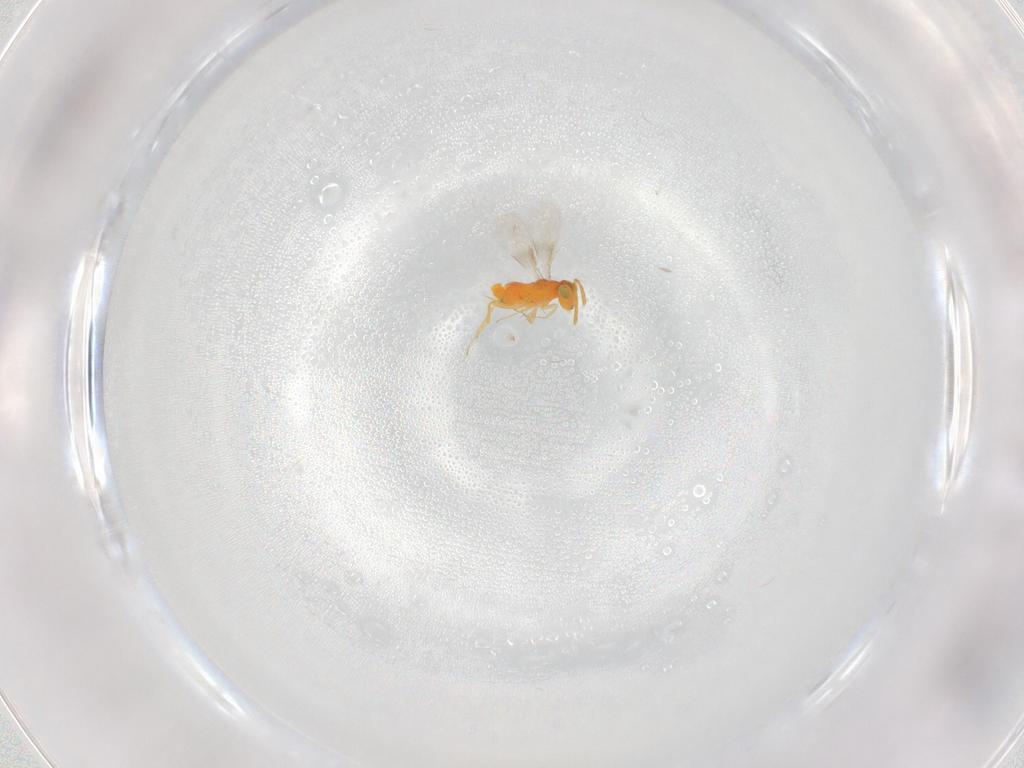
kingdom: Animalia
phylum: Arthropoda
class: Insecta
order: Hymenoptera
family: Platygastridae
